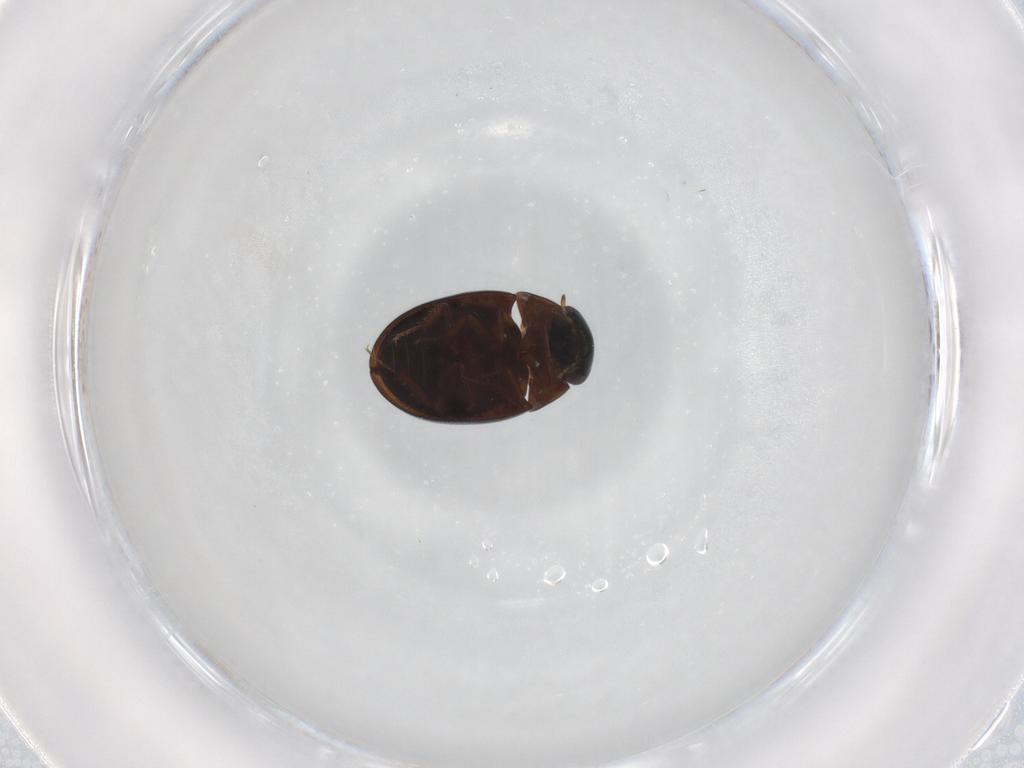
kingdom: Animalia
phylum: Arthropoda
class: Insecta
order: Coleoptera
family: Hydrophilidae
